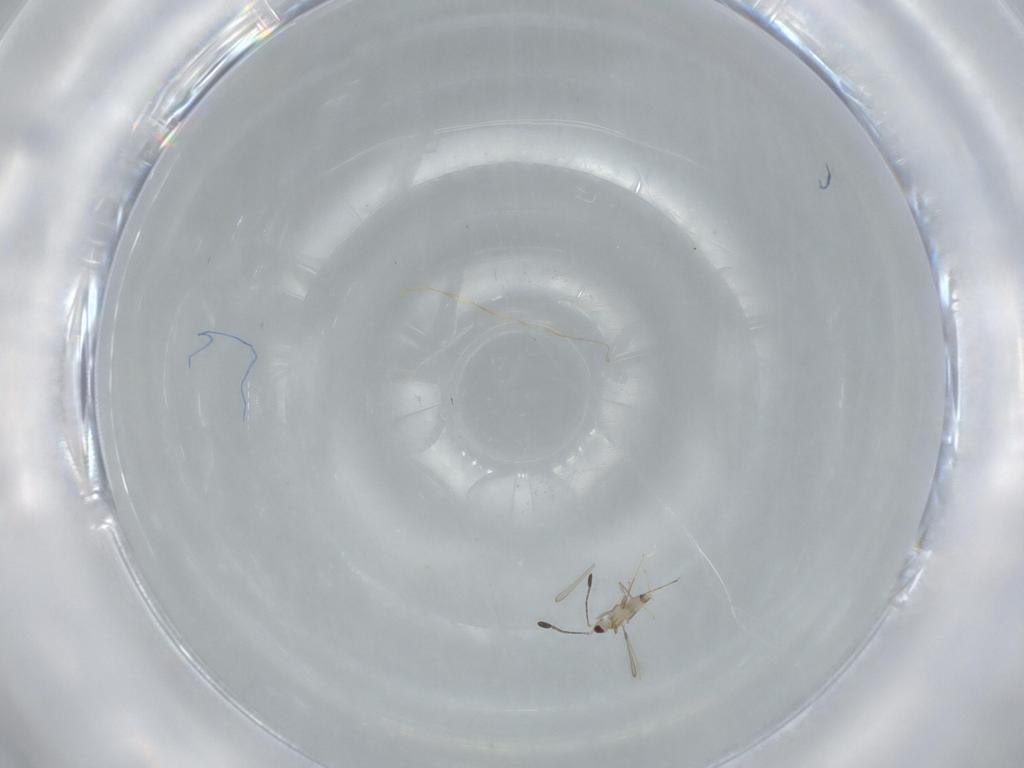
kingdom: Animalia
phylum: Arthropoda
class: Insecta
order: Hymenoptera
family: Mymaridae
